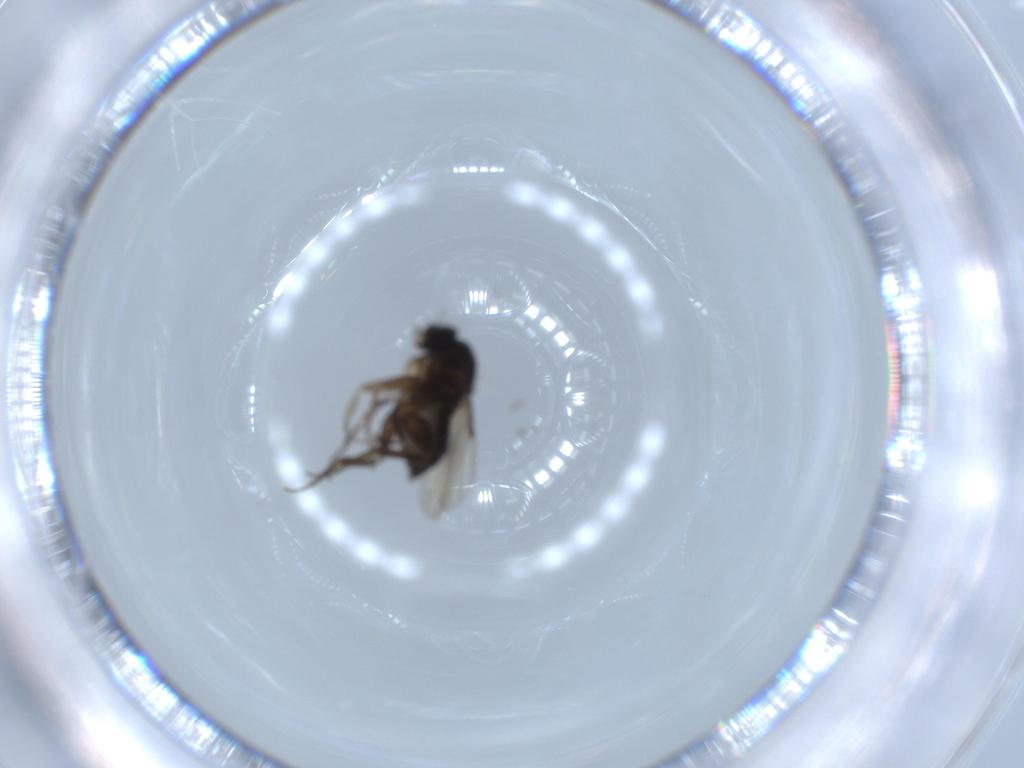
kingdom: Animalia
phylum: Arthropoda
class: Insecta
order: Diptera
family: Phoridae
